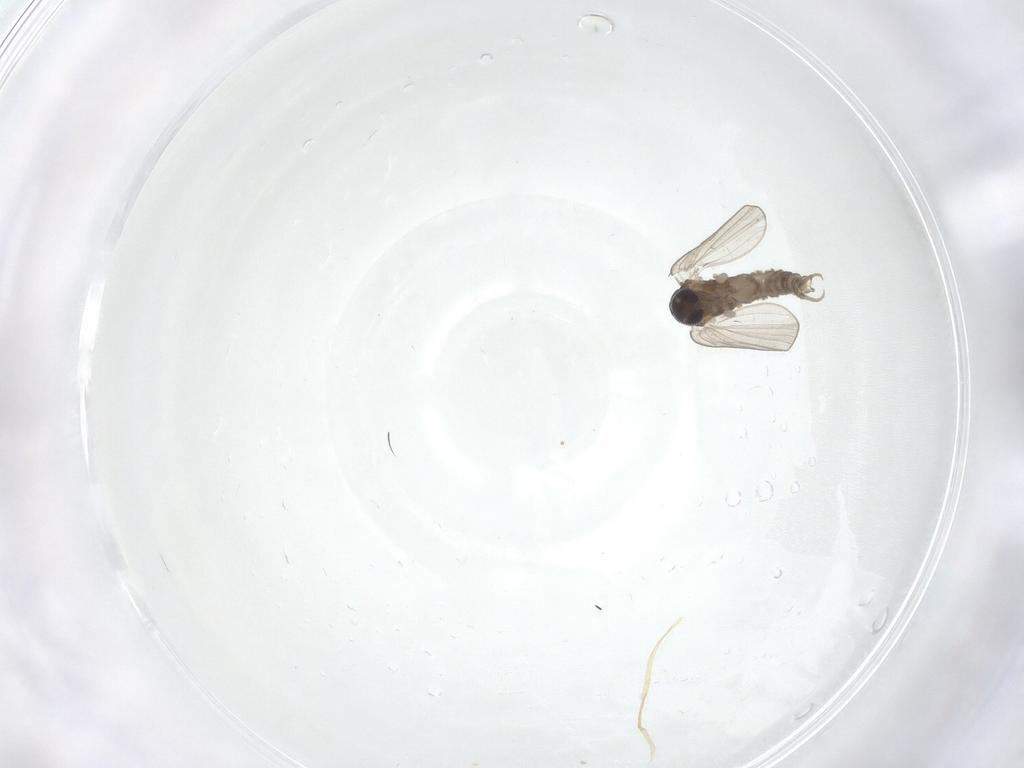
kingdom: Animalia
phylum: Arthropoda
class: Insecta
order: Diptera
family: Psychodidae
